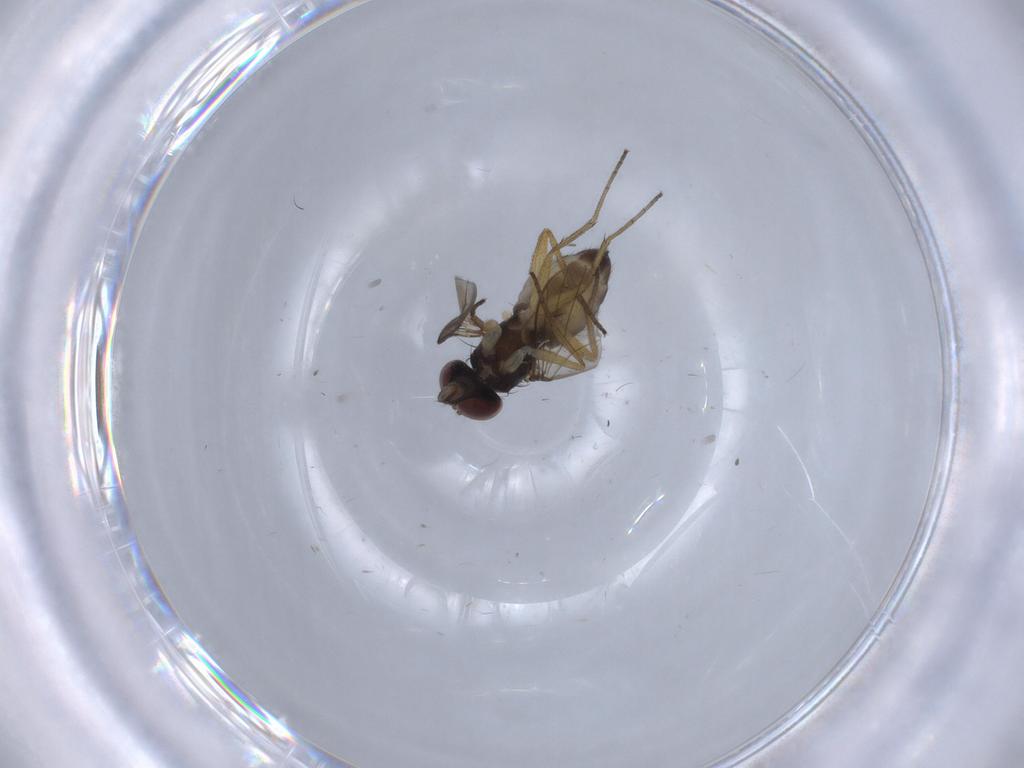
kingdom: Animalia
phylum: Arthropoda
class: Insecta
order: Diptera
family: Dolichopodidae
